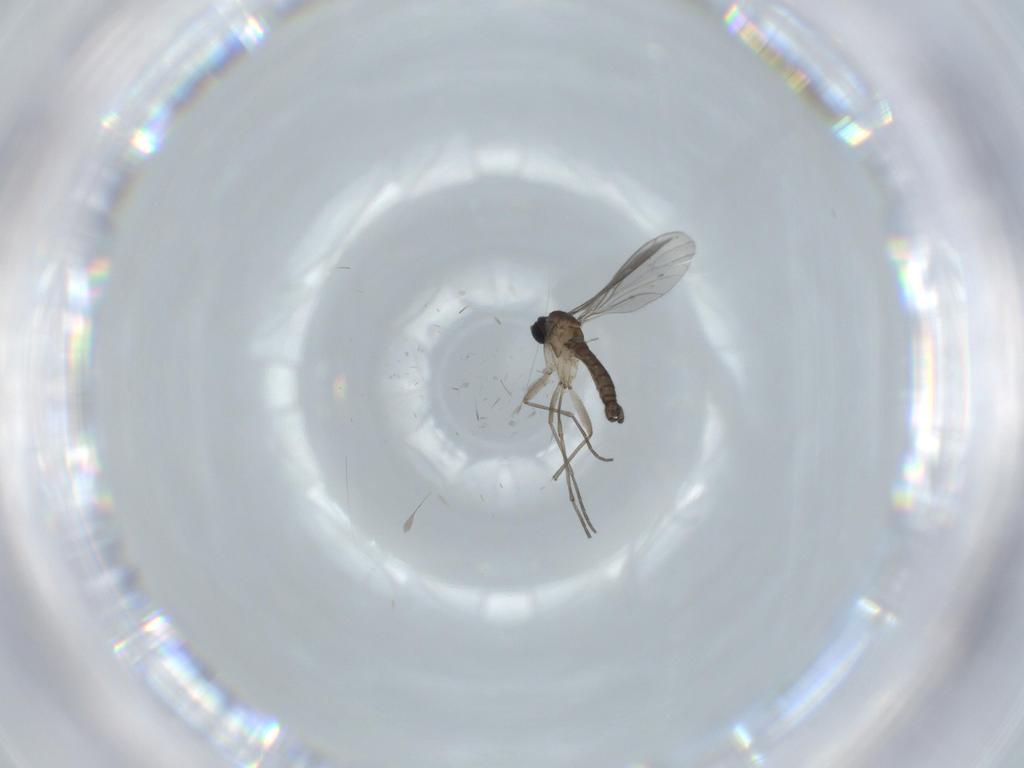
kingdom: Animalia
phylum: Arthropoda
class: Insecta
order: Diptera
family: Sciaridae
